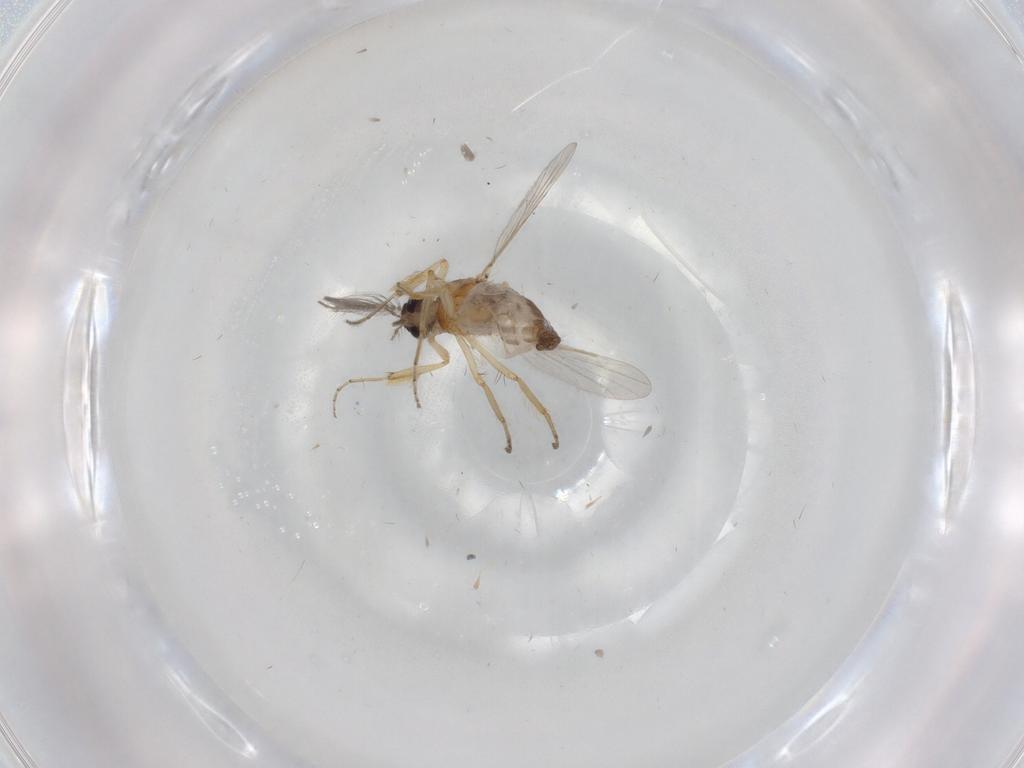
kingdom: Animalia
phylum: Arthropoda
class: Insecta
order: Diptera
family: Ceratopogonidae
